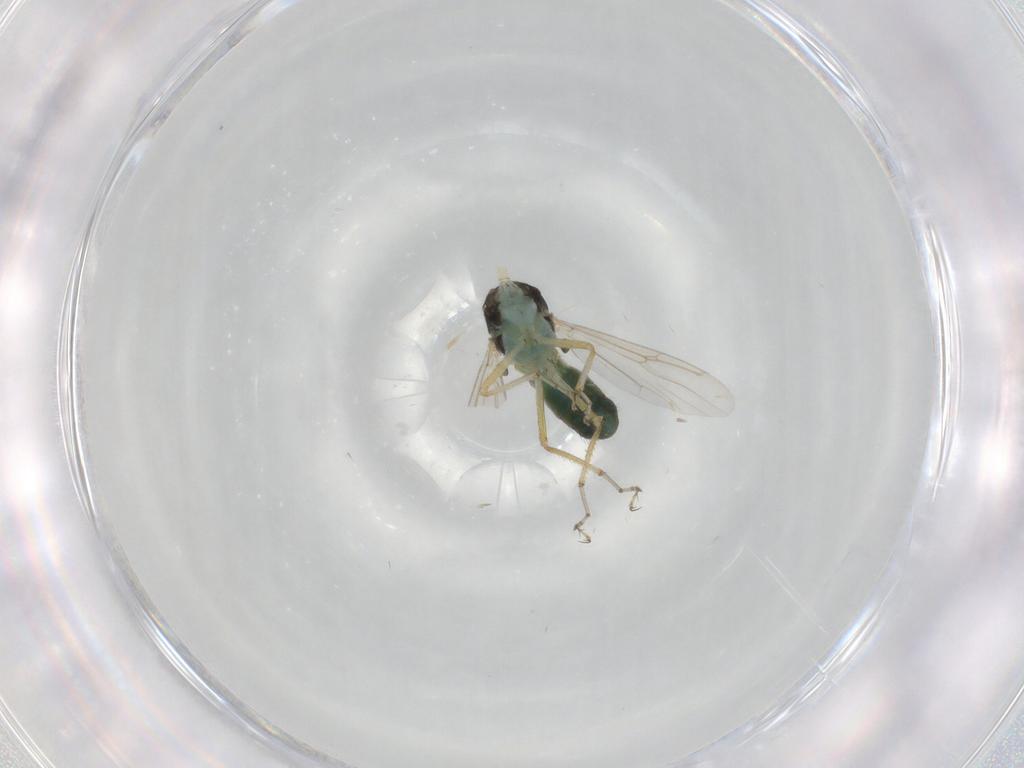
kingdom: Animalia
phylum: Arthropoda
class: Insecta
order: Diptera
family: Ceratopogonidae
